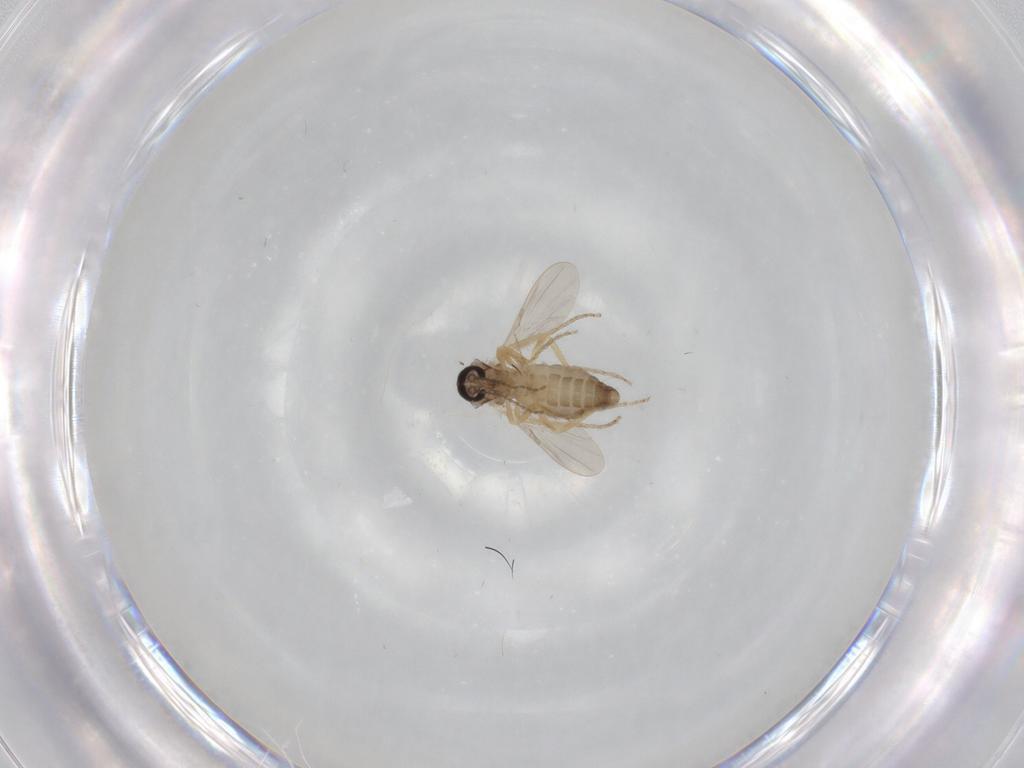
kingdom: Animalia
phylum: Arthropoda
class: Insecta
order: Diptera
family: Ceratopogonidae
